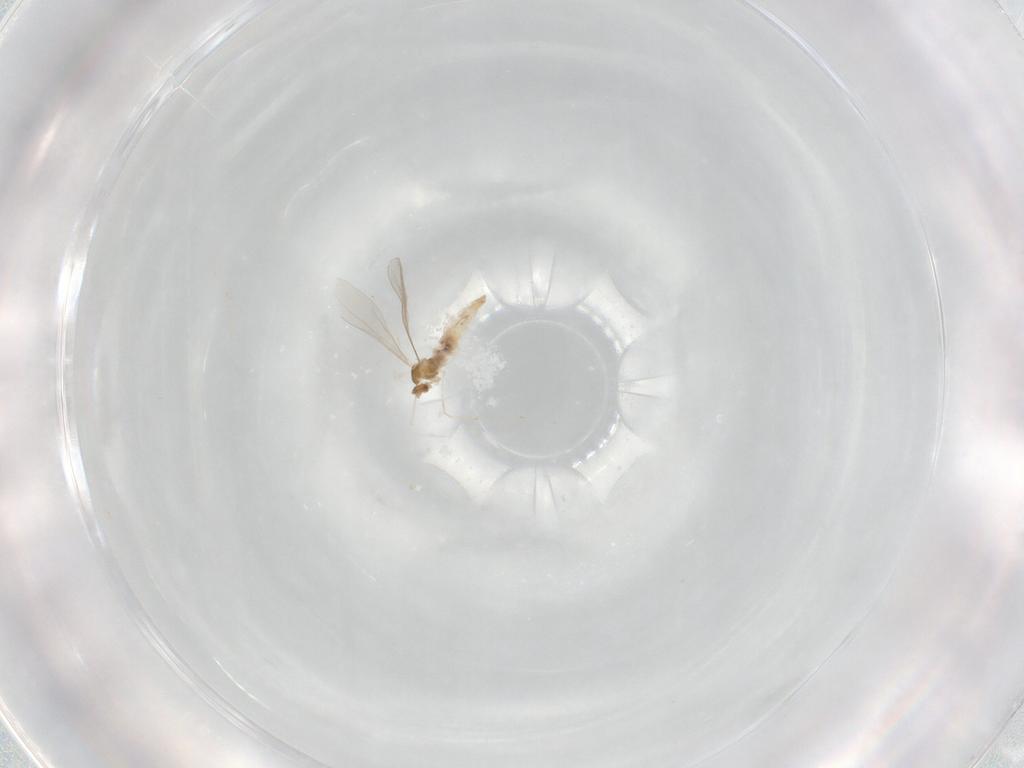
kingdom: Animalia
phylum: Arthropoda
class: Insecta
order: Diptera
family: Cecidomyiidae
